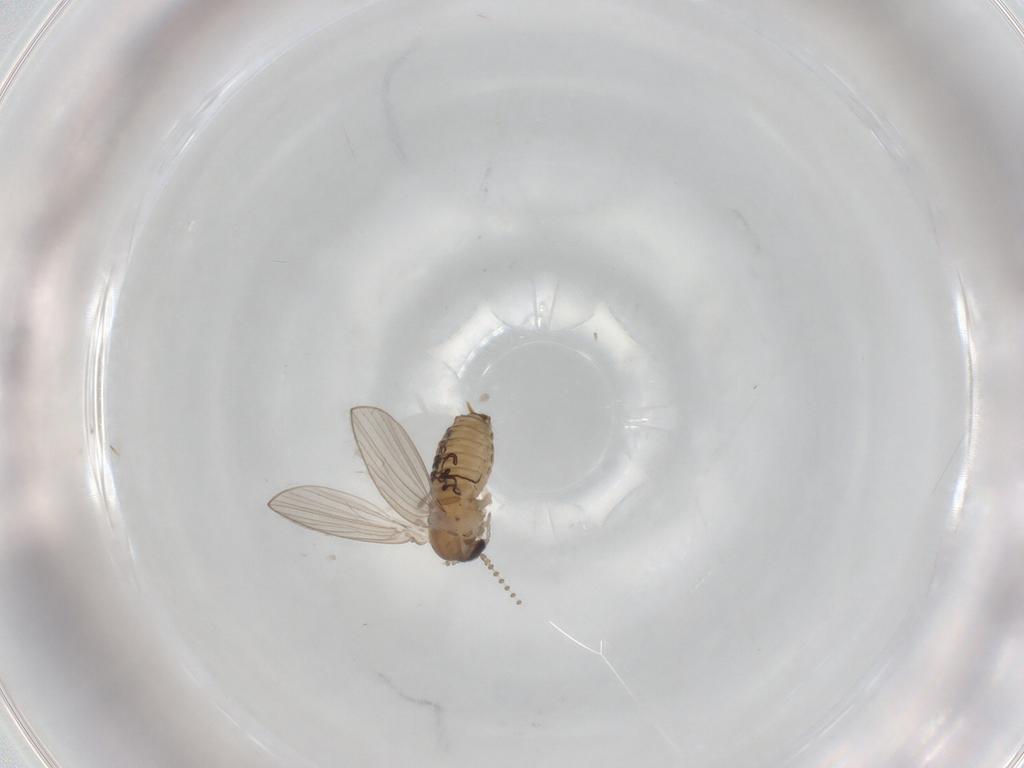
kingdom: Animalia
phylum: Arthropoda
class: Insecta
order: Diptera
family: Psychodidae
